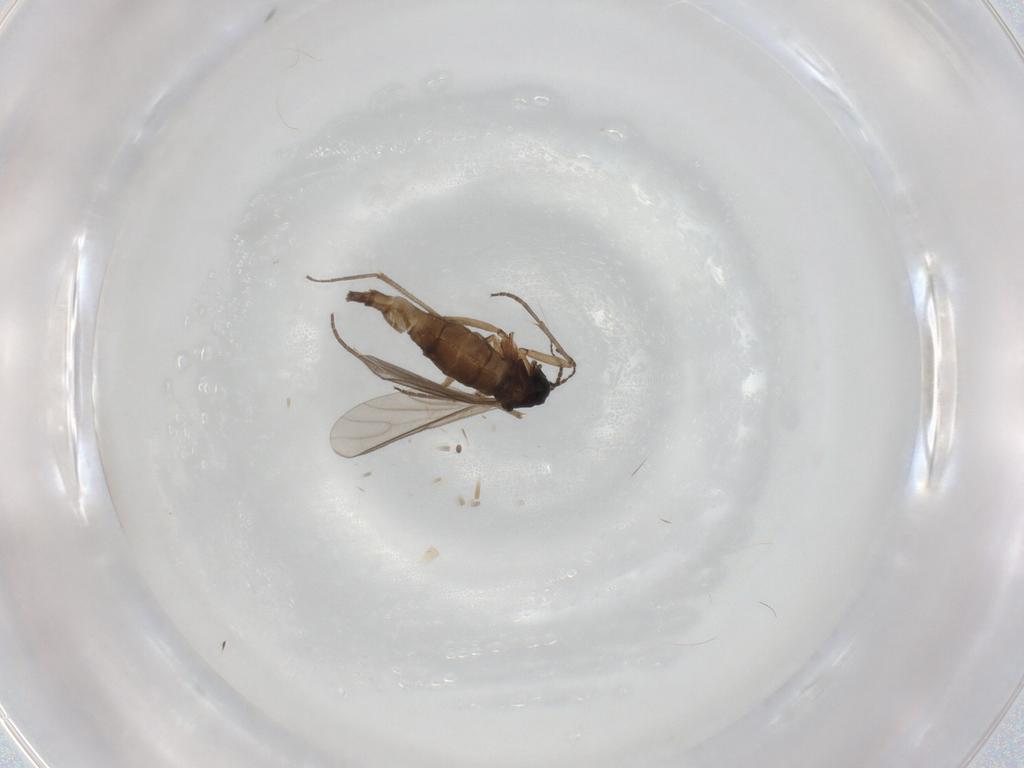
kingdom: Animalia
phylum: Arthropoda
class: Insecta
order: Diptera
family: Sciaridae
